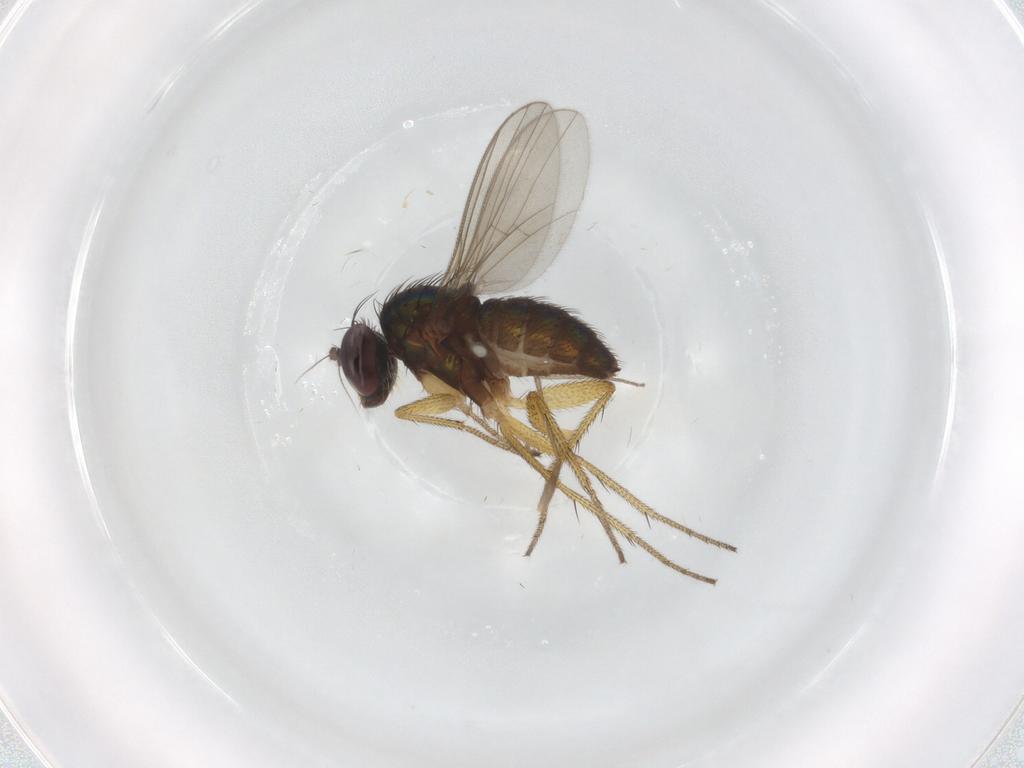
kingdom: Animalia
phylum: Arthropoda
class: Insecta
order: Diptera
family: Dolichopodidae
